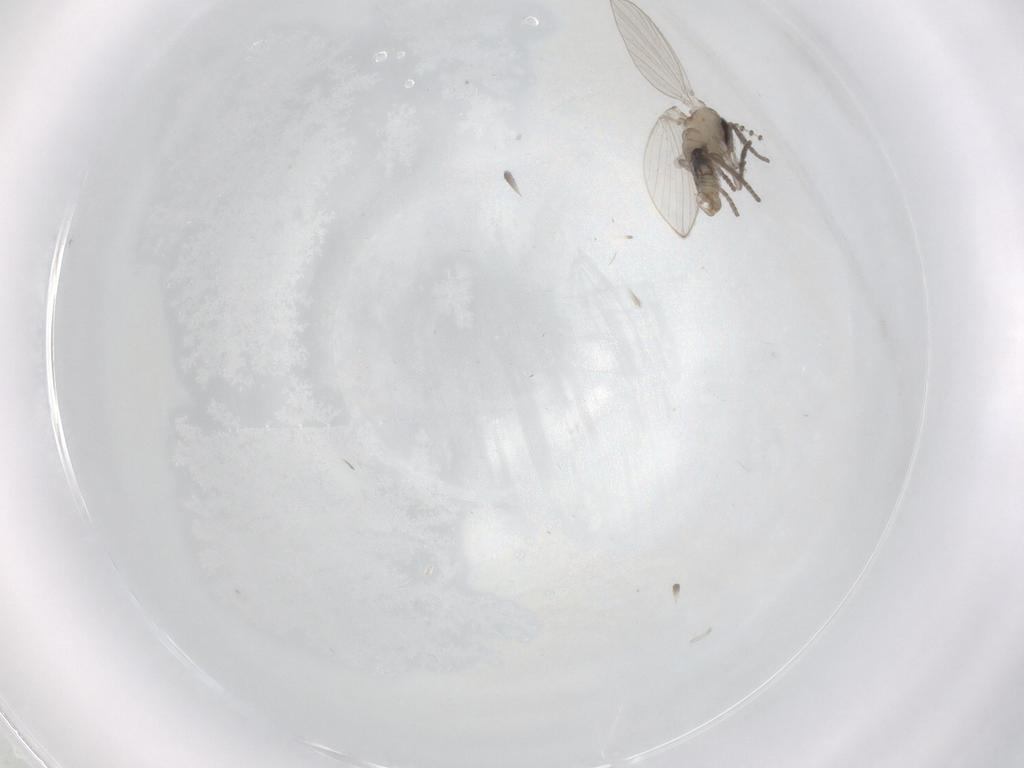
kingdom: Animalia
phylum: Arthropoda
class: Insecta
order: Diptera
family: Psychodidae
